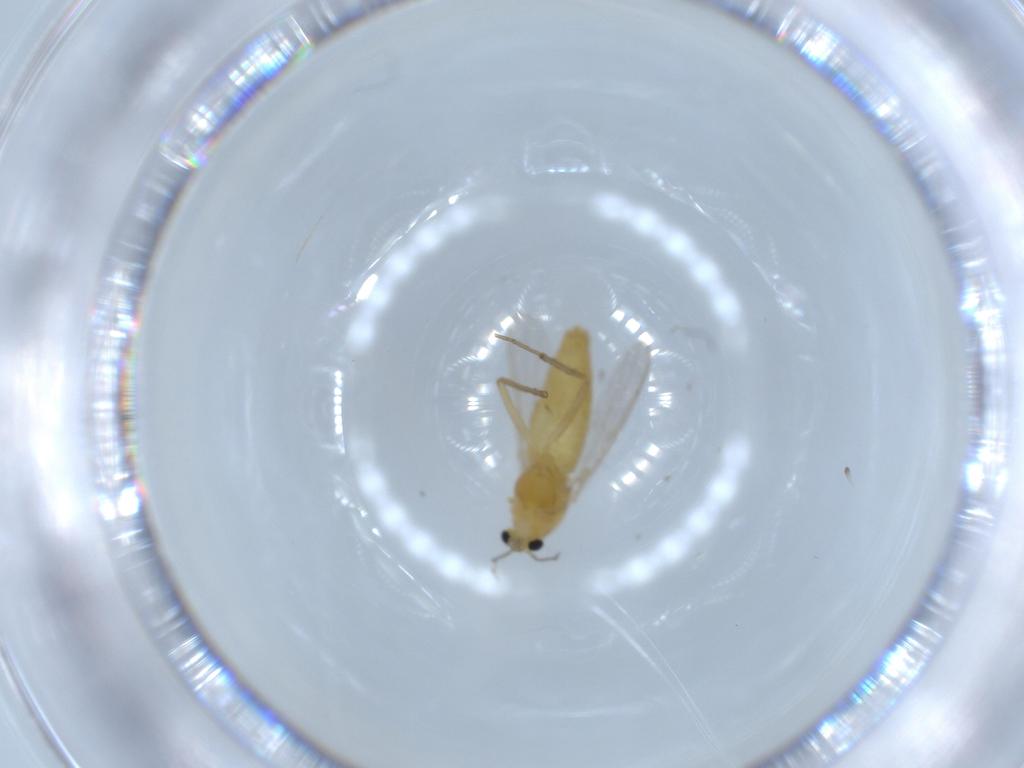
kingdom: Animalia
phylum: Arthropoda
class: Insecta
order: Diptera
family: Chironomidae
